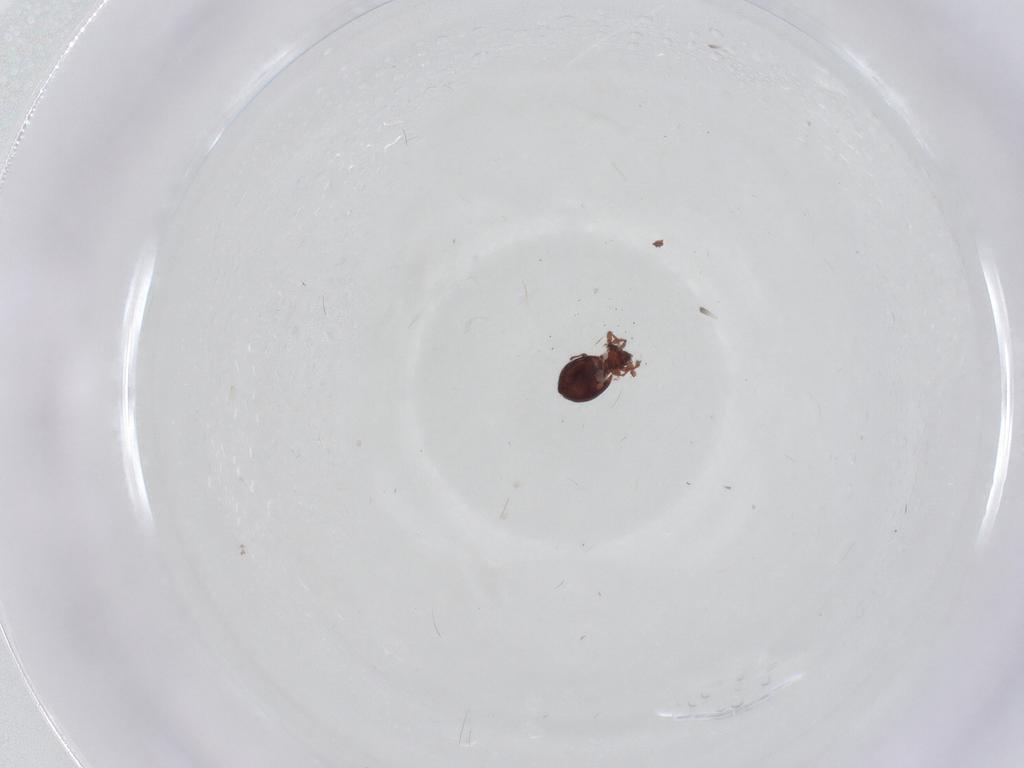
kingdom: Animalia
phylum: Arthropoda
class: Arachnida
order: Sarcoptiformes
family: Achipteriidae
